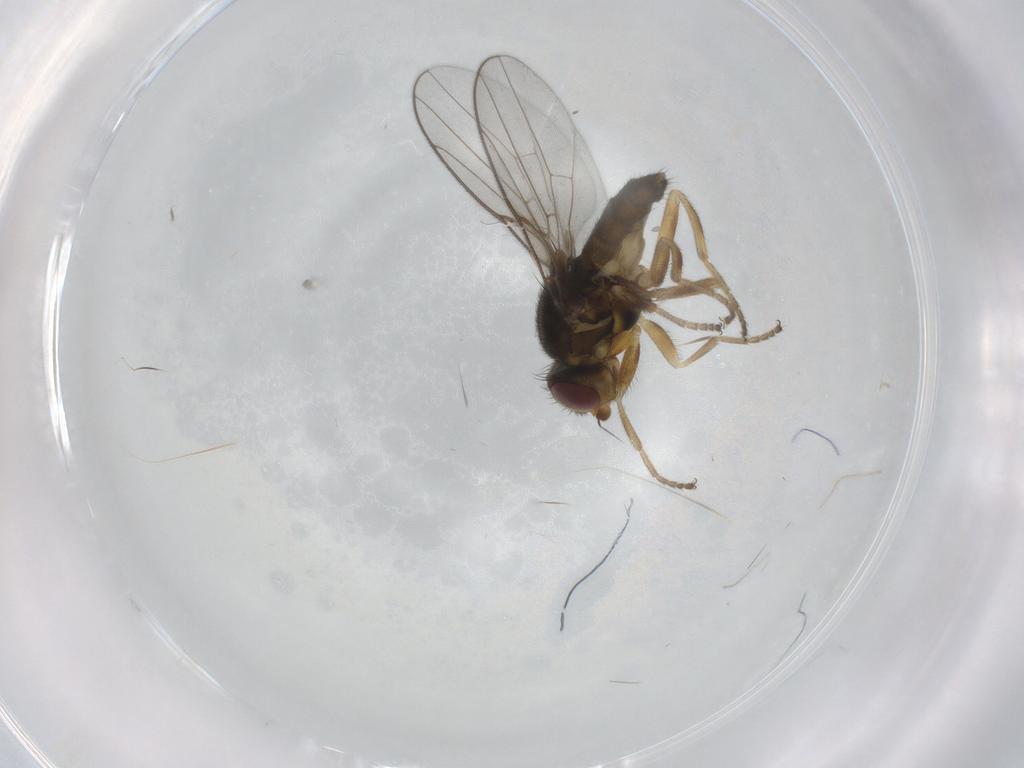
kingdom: Animalia
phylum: Arthropoda
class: Insecta
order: Diptera
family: Chloropidae
